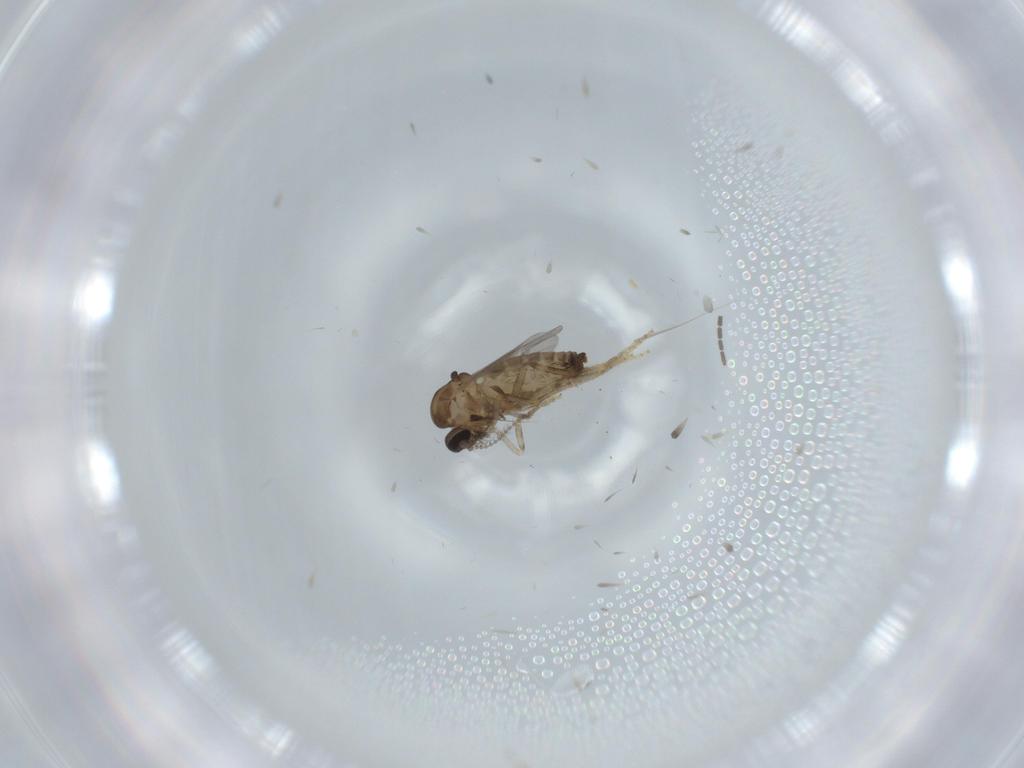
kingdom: Animalia
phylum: Arthropoda
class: Insecta
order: Diptera
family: Ceratopogonidae
